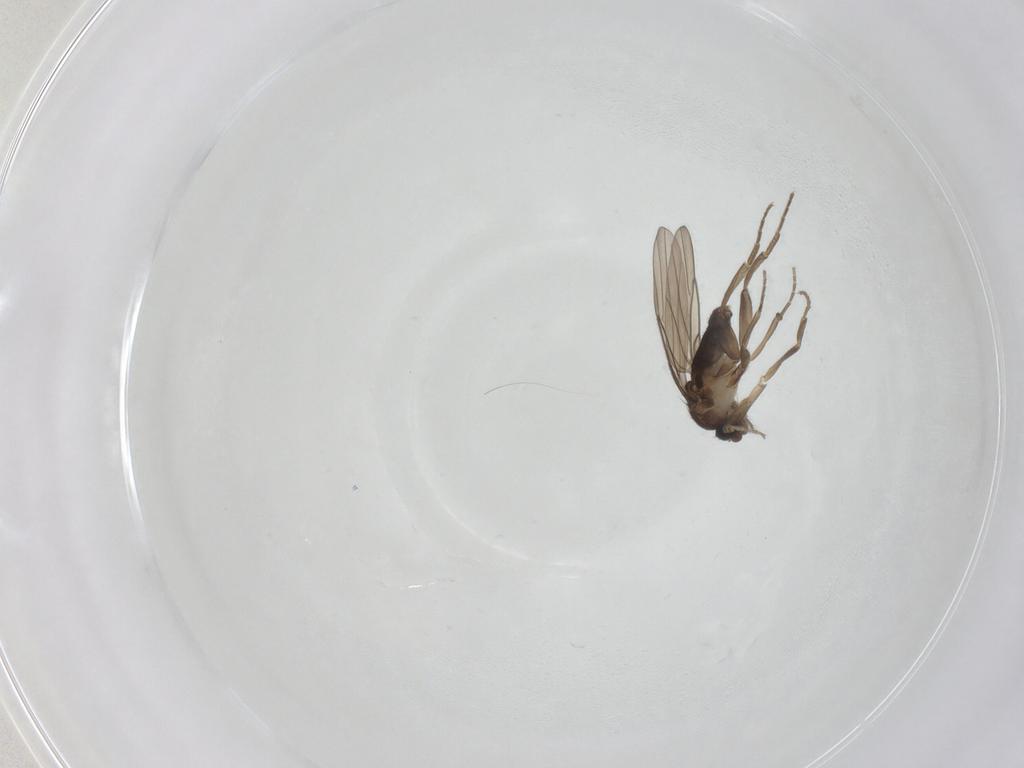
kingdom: Animalia
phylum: Arthropoda
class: Insecta
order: Diptera
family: Phoridae
